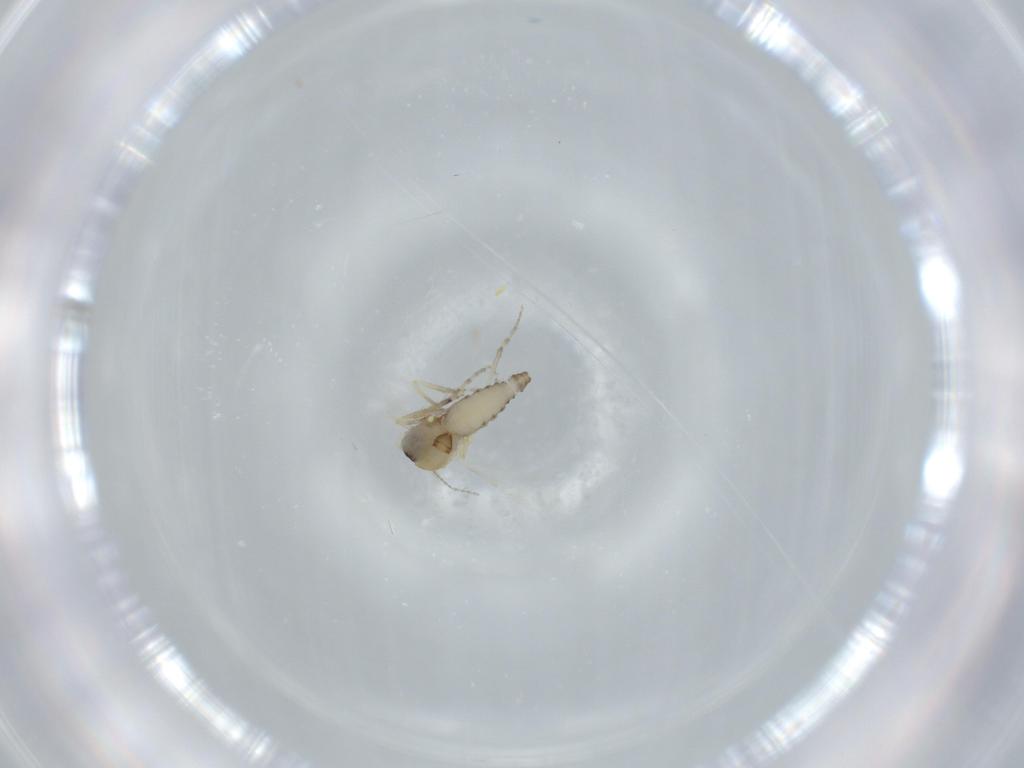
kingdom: Animalia
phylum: Arthropoda
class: Insecta
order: Diptera
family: Ceratopogonidae
